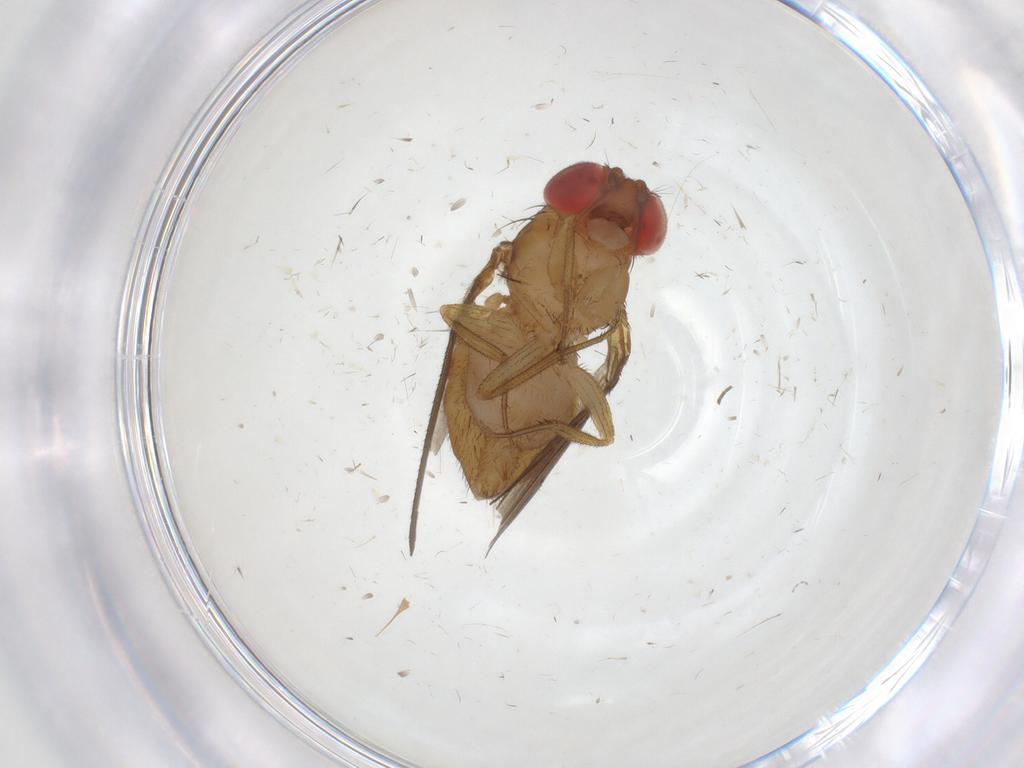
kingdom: Animalia
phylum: Arthropoda
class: Insecta
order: Diptera
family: Drosophilidae
